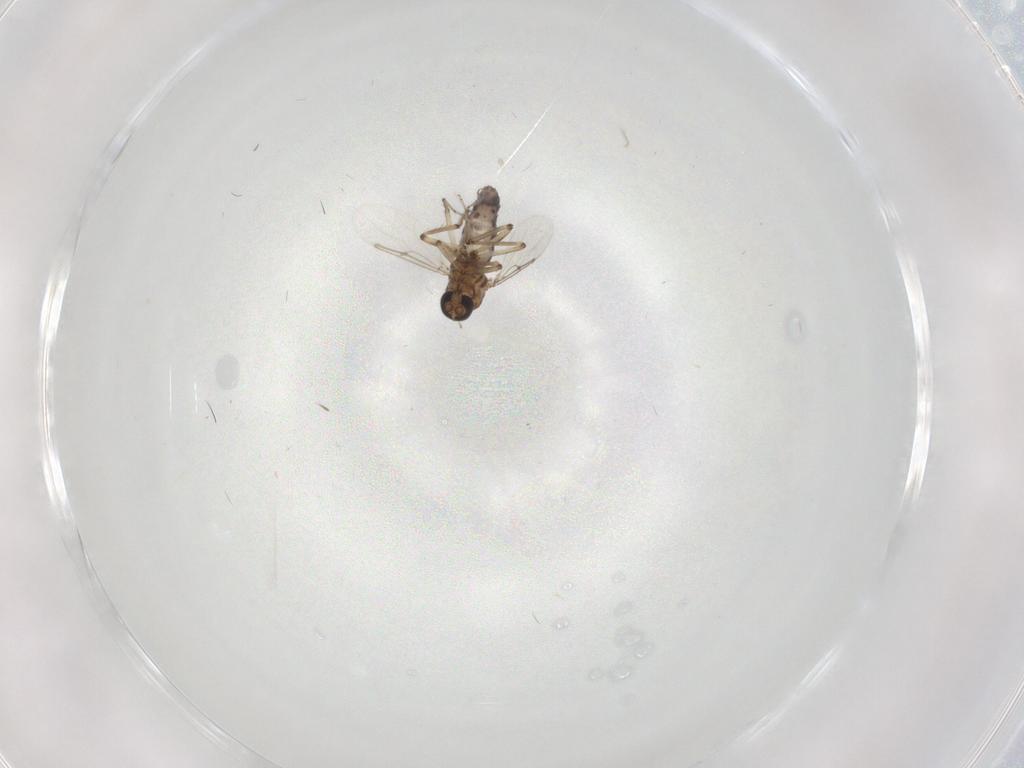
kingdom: Animalia
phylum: Arthropoda
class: Insecta
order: Diptera
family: Ceratopogonidae
